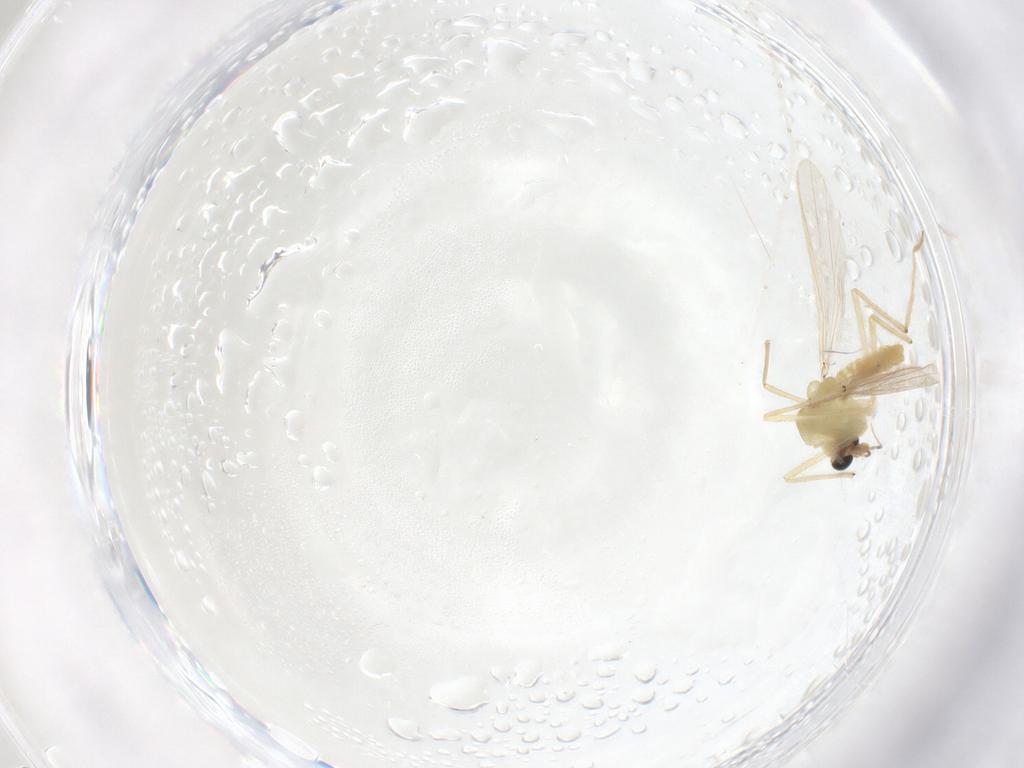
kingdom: Animalia
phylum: Arthropoda
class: Insecta
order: Diptera
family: Chironomidae
